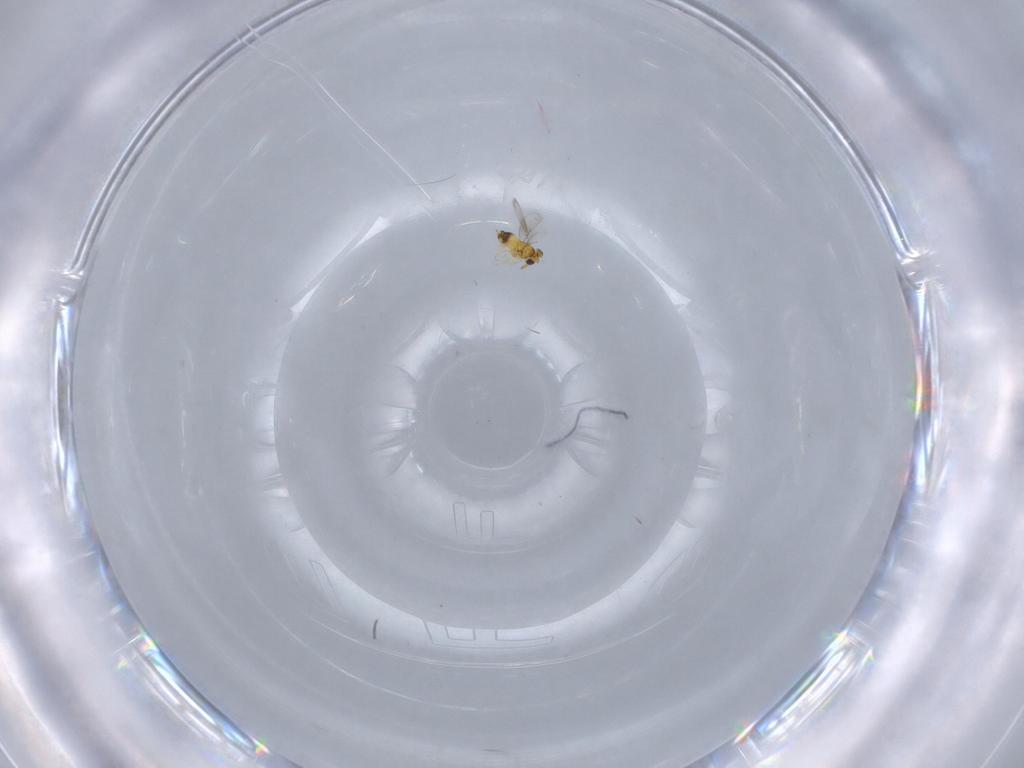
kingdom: Animalia
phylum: Arthropoda
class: Insecta
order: Hymenoptera
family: Aphelinidae
